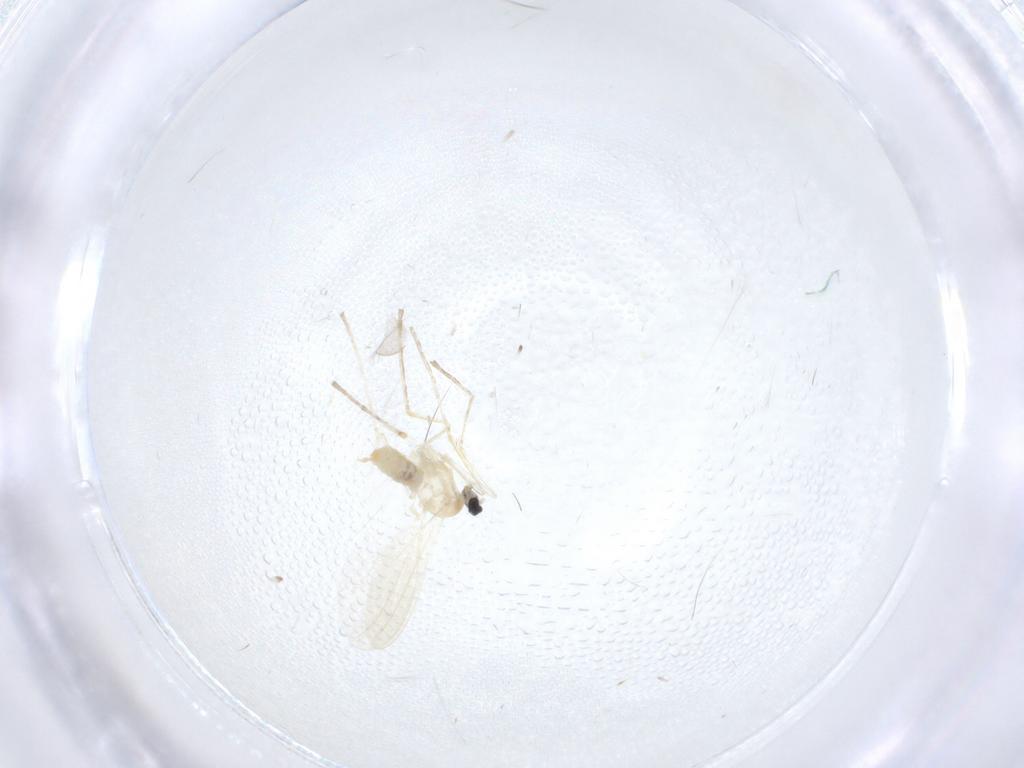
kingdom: Animalia
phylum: Arthropoda
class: Insecta
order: Diptera
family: Cecidomyiidae
